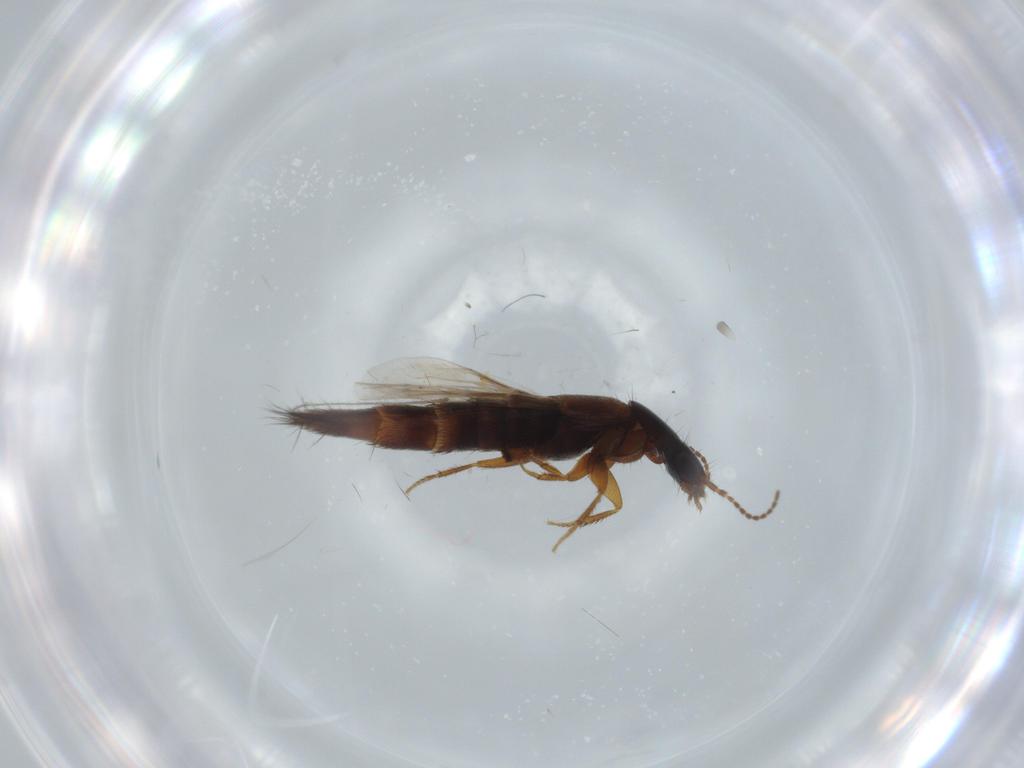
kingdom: Animalia
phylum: Arthropoda
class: Insecta
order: Coleoptera
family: Staphylinidae
